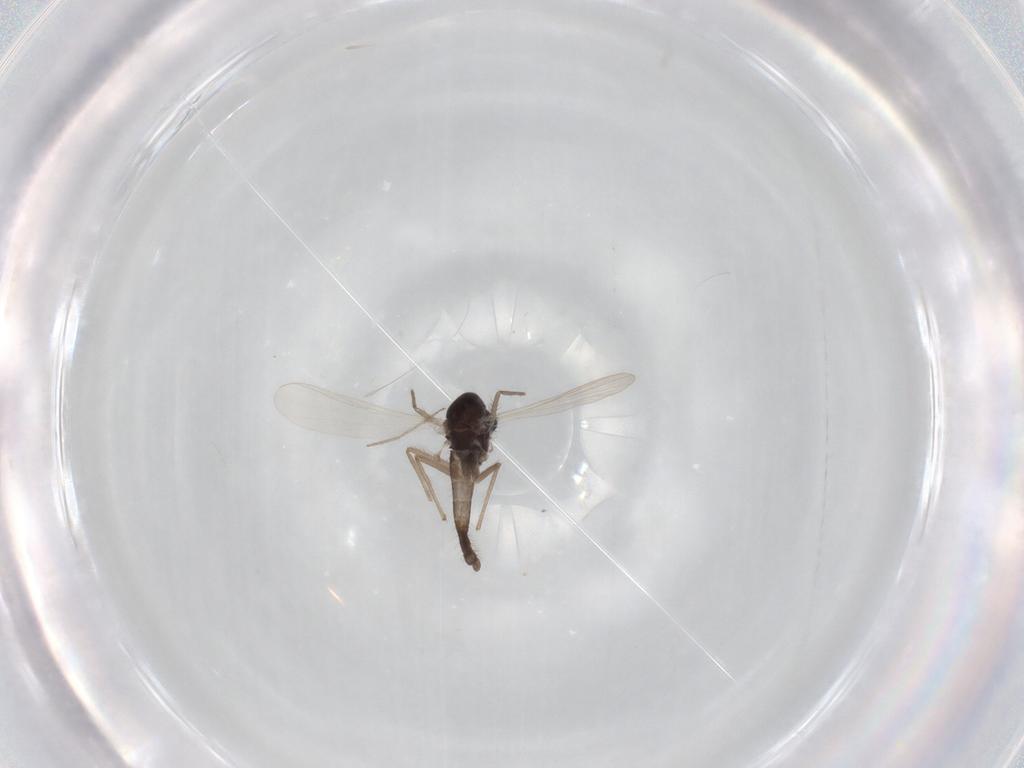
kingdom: Animalia
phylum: Arthropoda
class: Insecta
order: Diptera
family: Chironomidae
